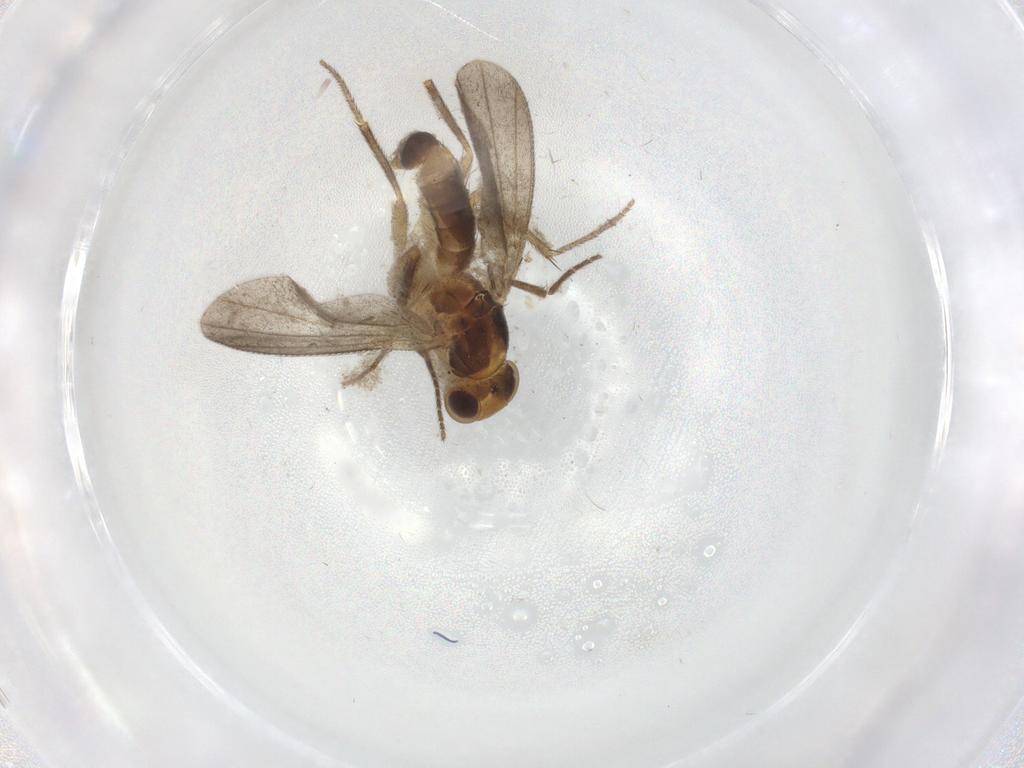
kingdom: Animalia
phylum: Arthropoda
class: Insecta
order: Diptera
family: Clusiidae
